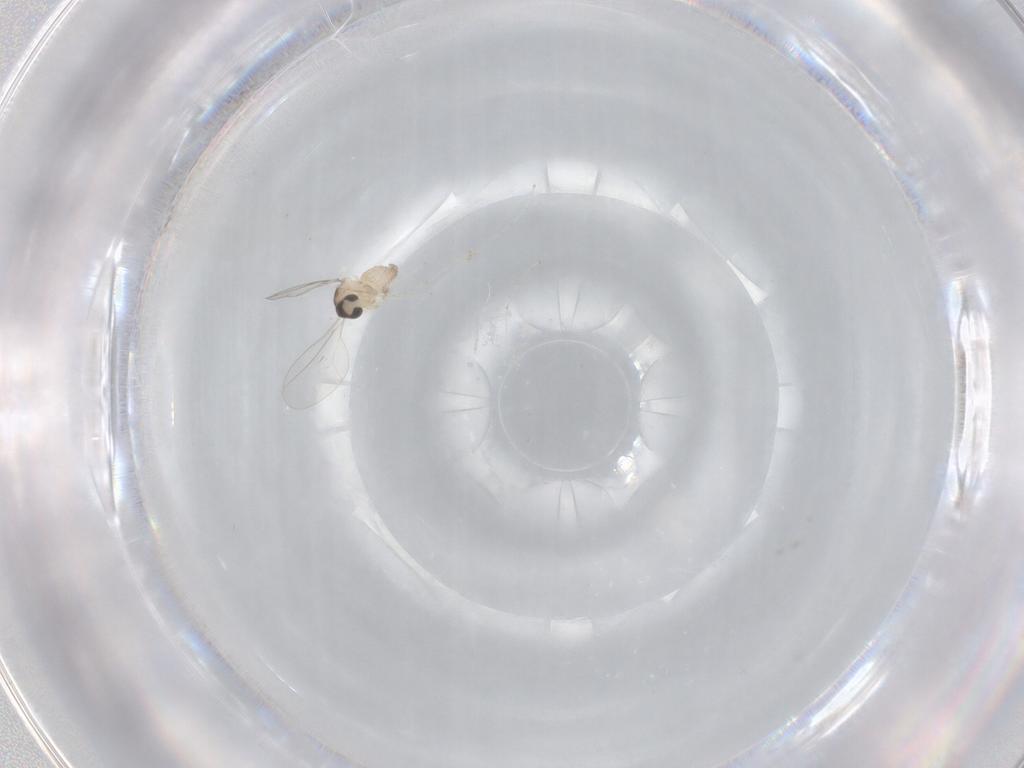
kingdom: Animalia
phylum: Arthropoda
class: Insecta
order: Diptera
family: Cecidomyiidae
